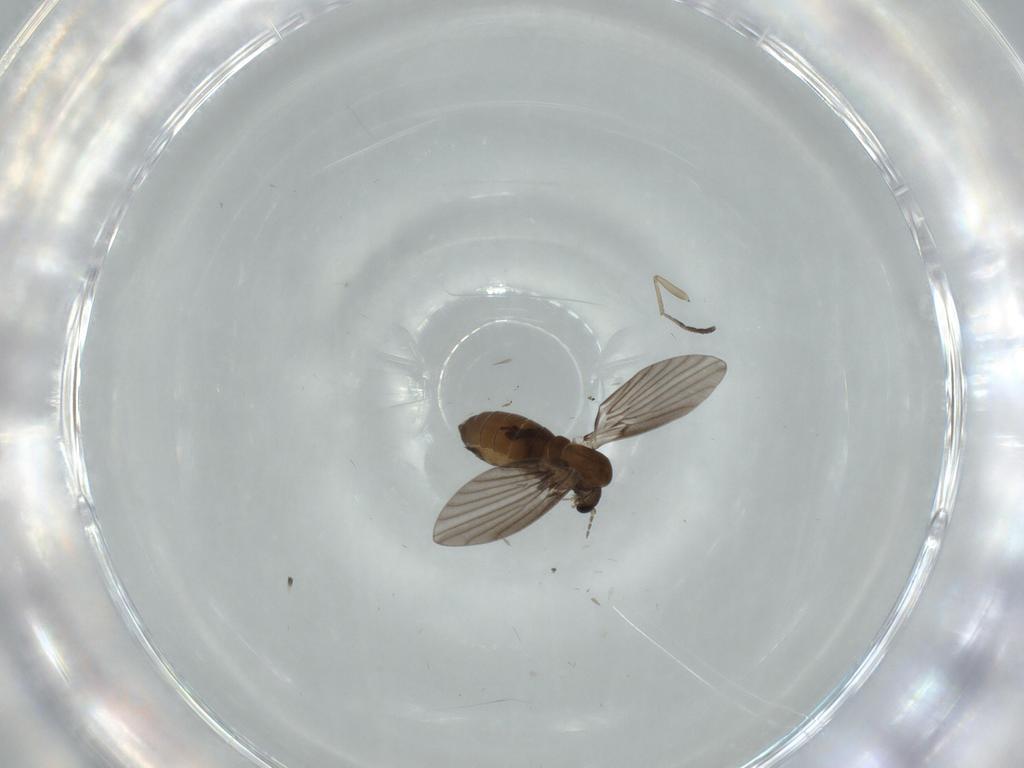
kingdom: Animalia
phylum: Arthropoda
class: Insecta
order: Diptera
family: Psychodidae
